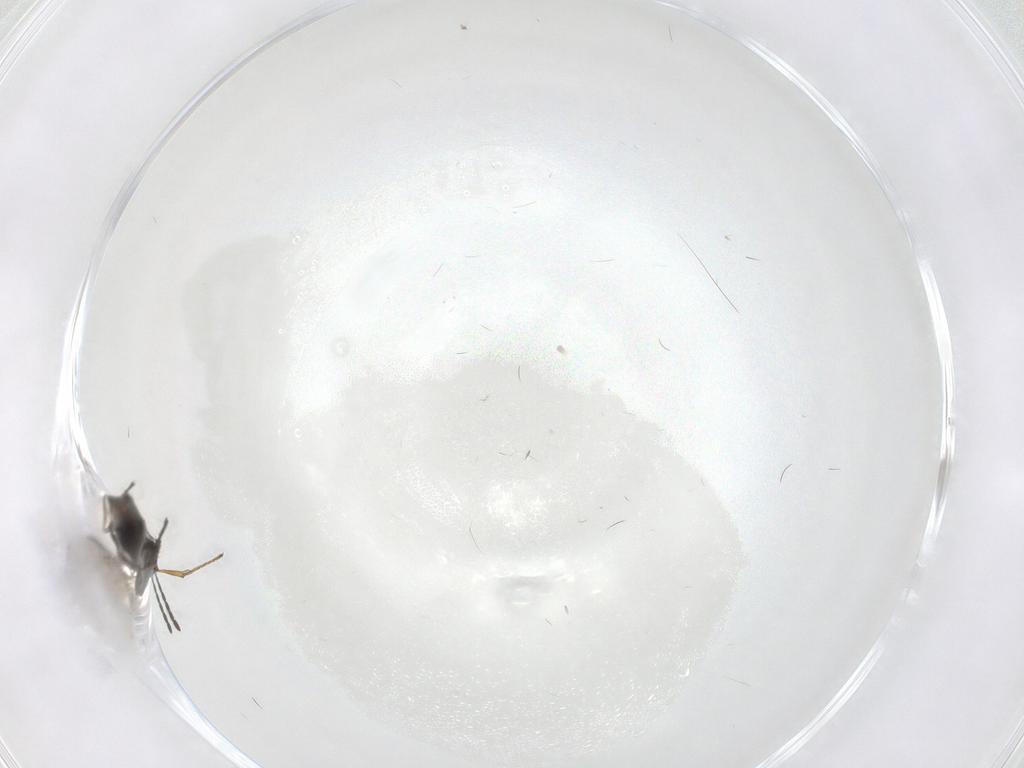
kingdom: Animalia
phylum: Arthropoda
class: Insecta
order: Hymenoptera
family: Figitidae
